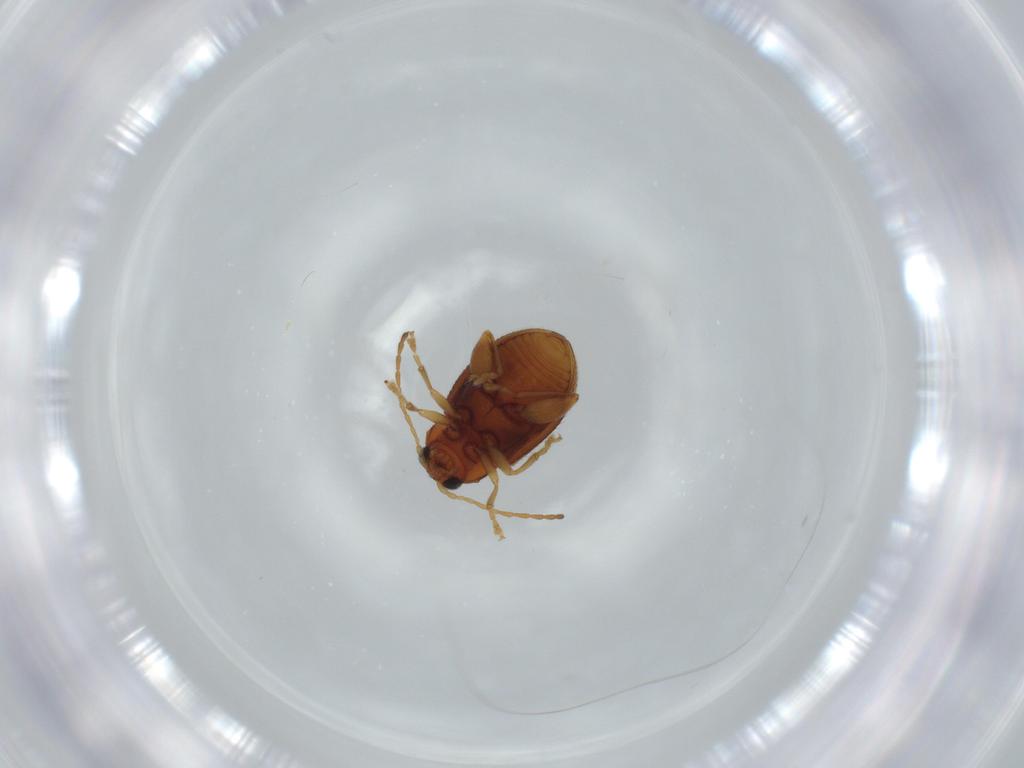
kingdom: Animalia
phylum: Arthropoda
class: Insecta
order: Coleoptera
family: Chrysomelidae
